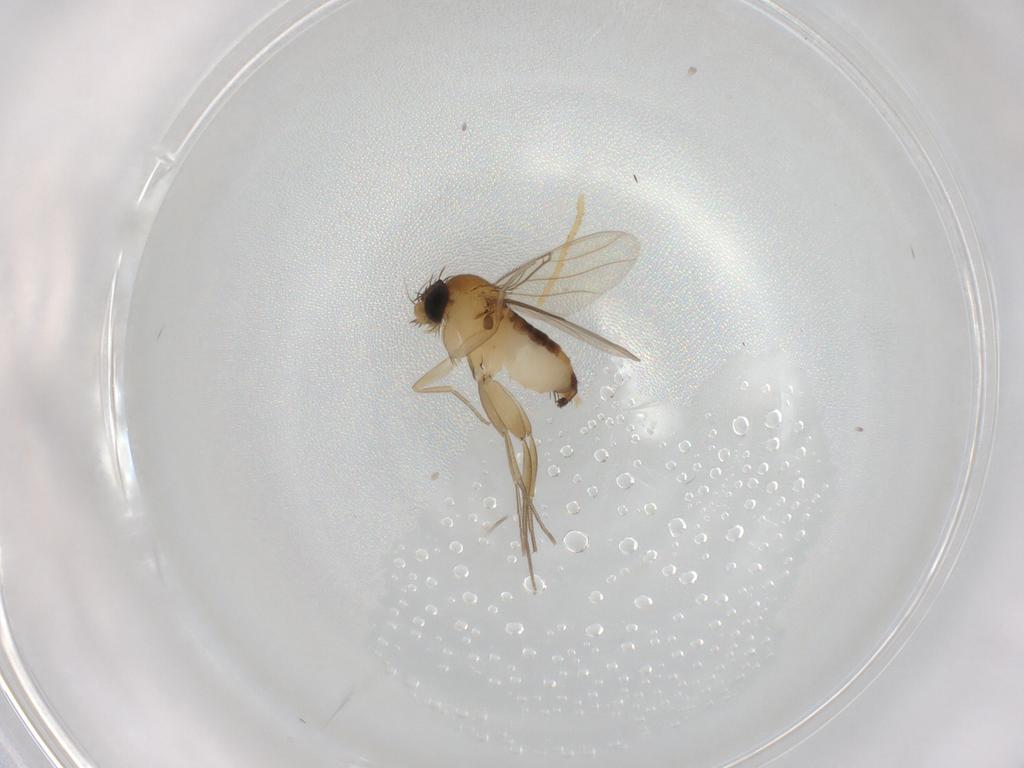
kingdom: Animalia
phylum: Arthropoda
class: Insecta
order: Diptera
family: Phoridae
